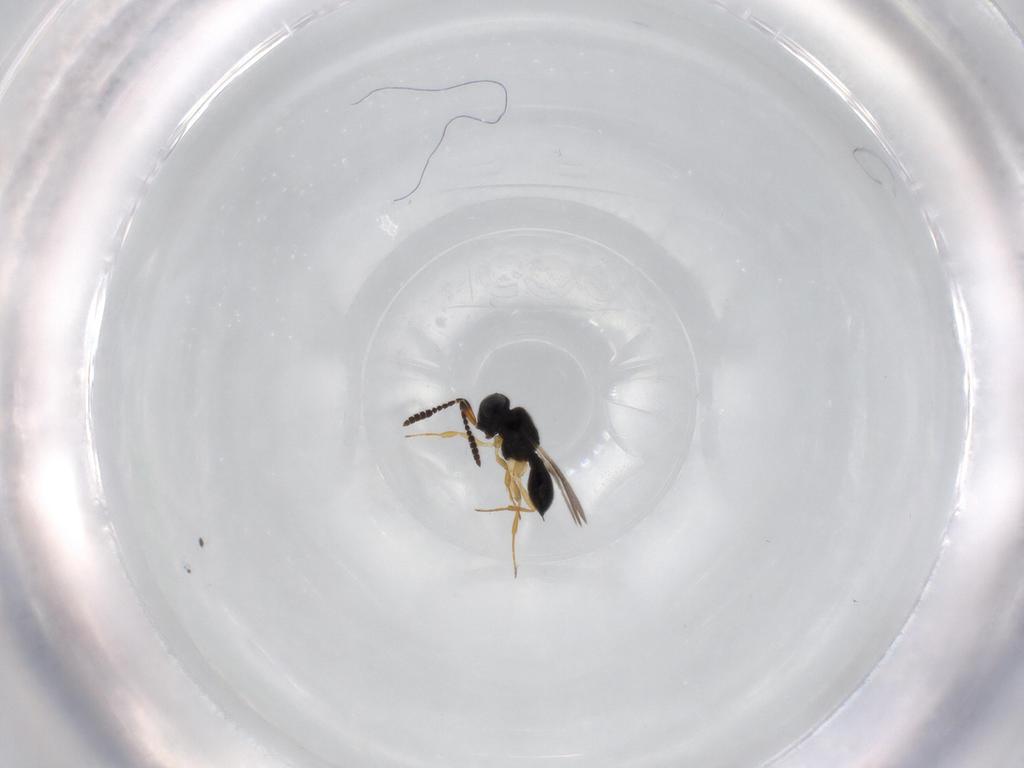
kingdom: Animalia
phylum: Arthropoda
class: Insecta
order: Hymenoptera
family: Scelionidae
